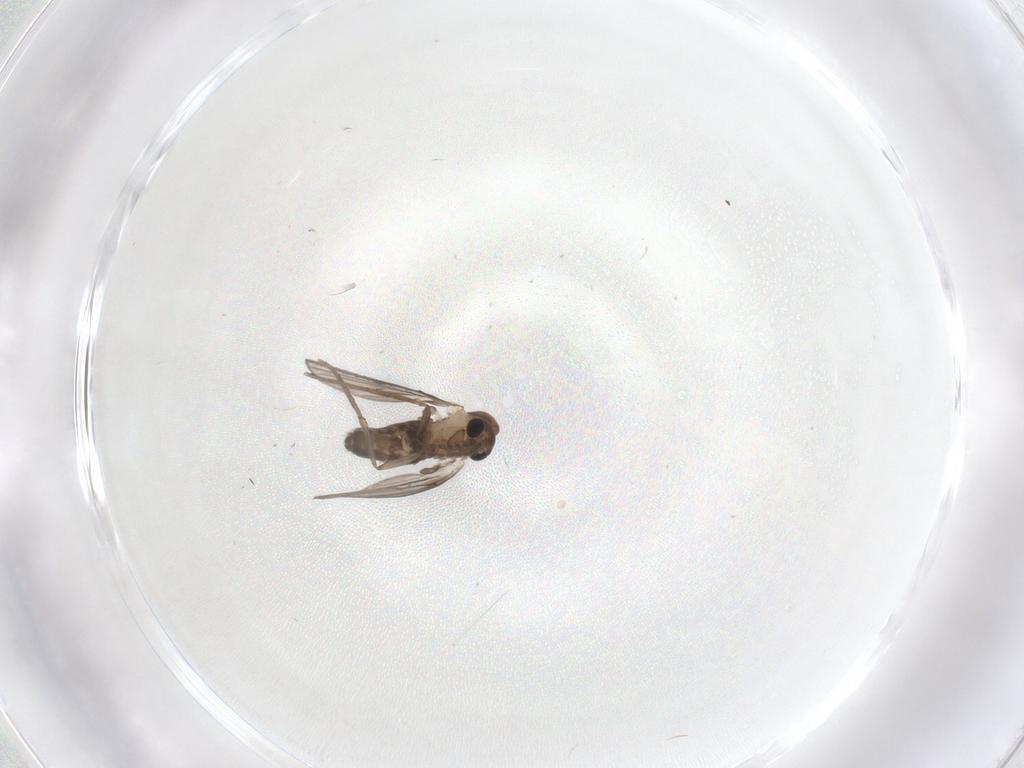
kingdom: Animalia
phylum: Arthropoda
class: Insecta
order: Diptera
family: Psychodidae
